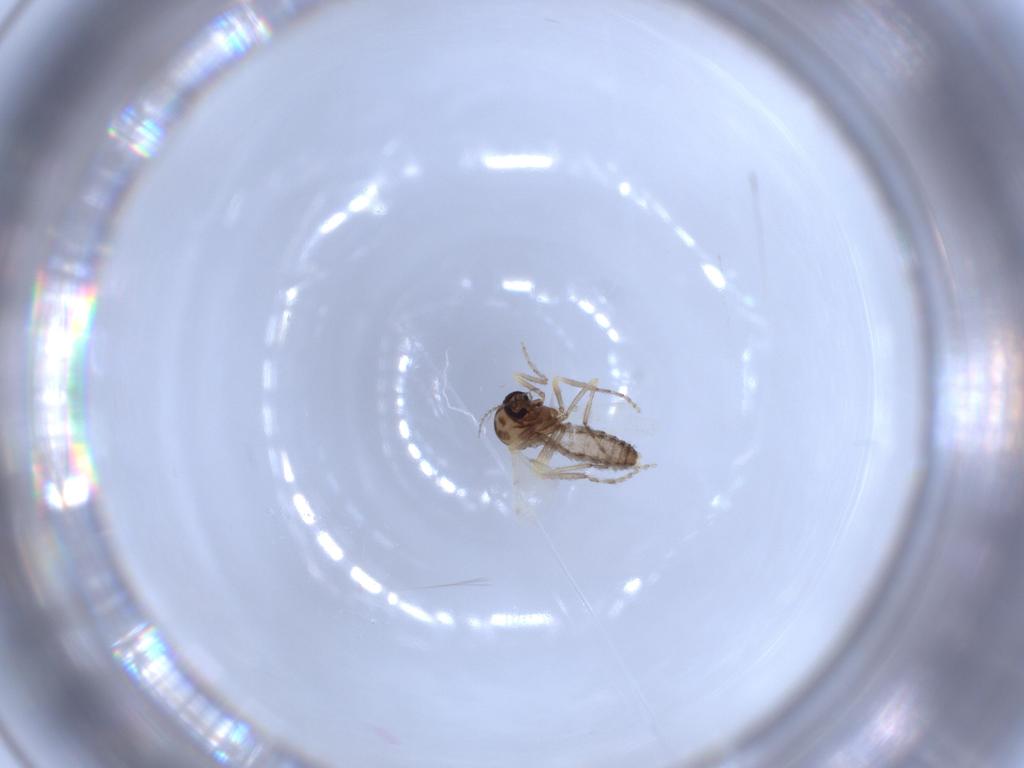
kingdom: Animalia
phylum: Arthropoda
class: Insecta
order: Diptera
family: Ceratopogonidae
